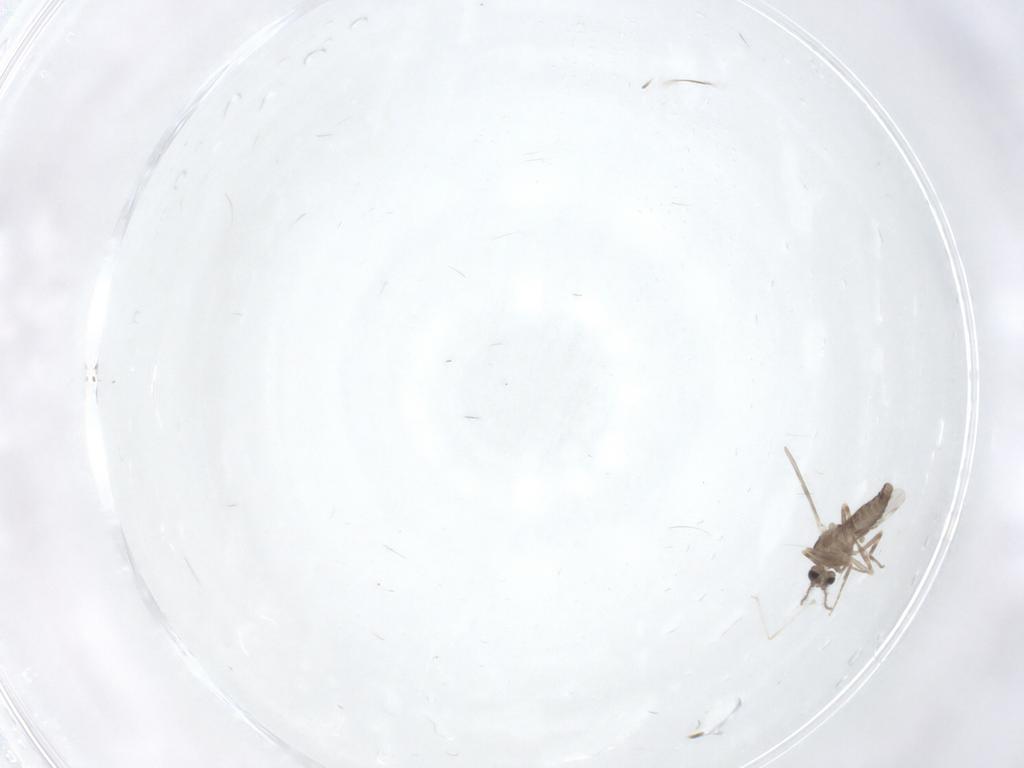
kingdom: Animalia
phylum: Arthropoda
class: Insecta
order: Diptera
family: Ceratopogonidae
